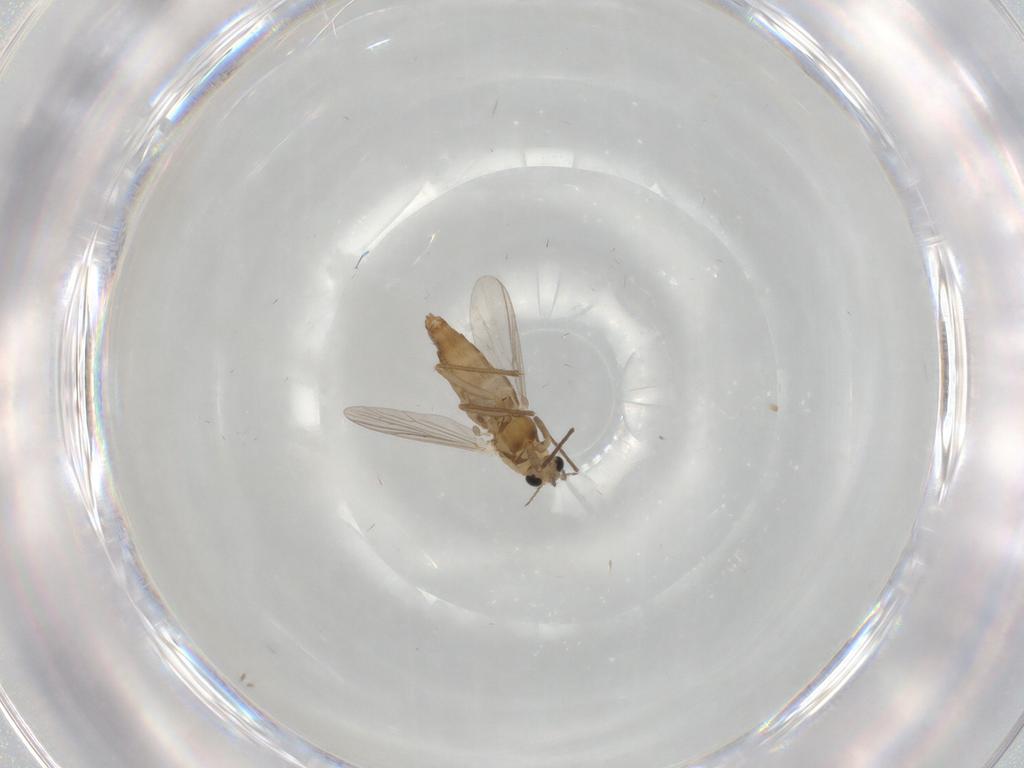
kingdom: Animalia
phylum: Arthropoda
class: Insecta
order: Diptera
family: Chironomidae
